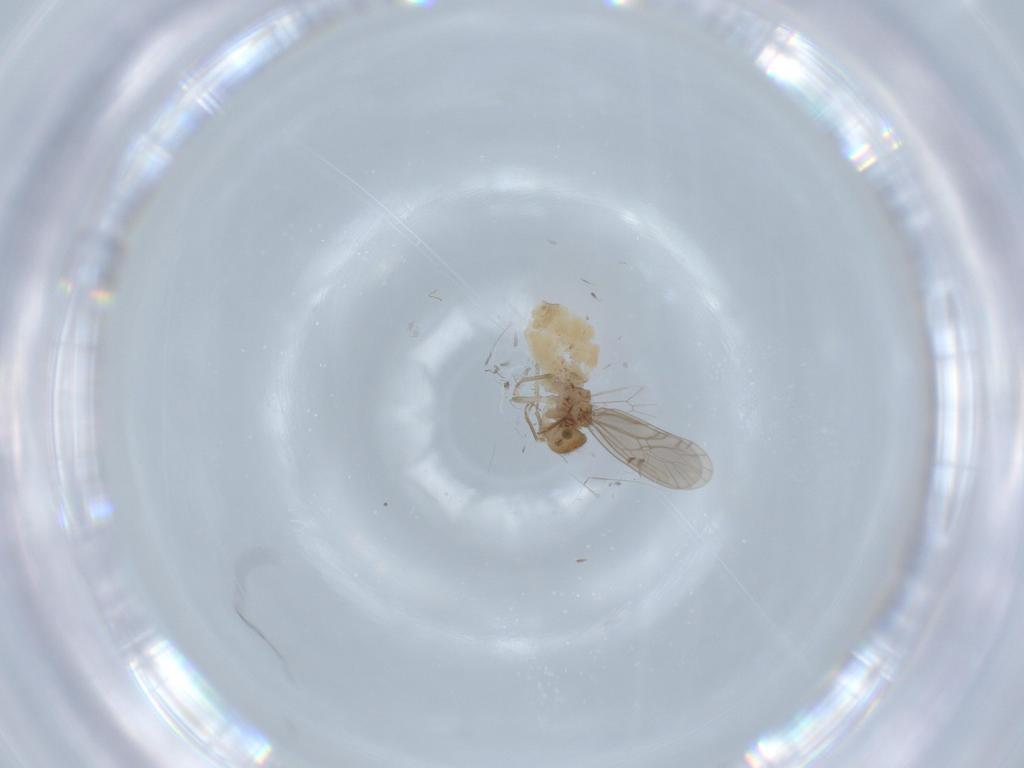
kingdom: Animalia
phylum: Arthropoda
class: Insecta
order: Psocodea
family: Ectopsocidae
